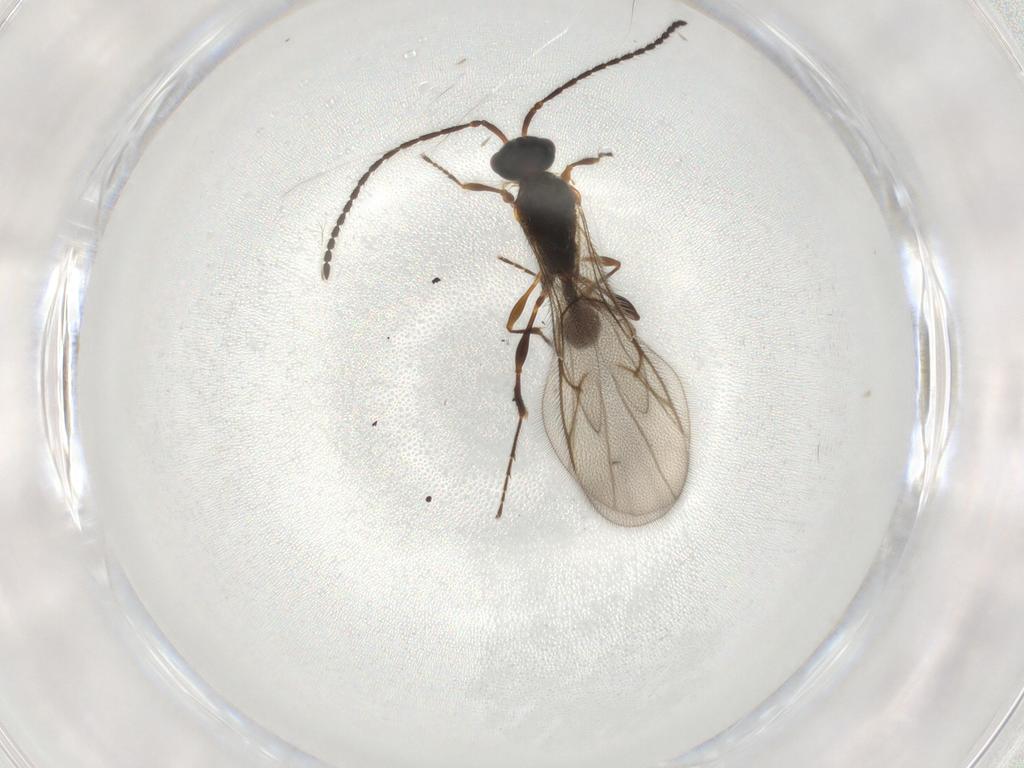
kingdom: Animalia
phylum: Arthropoda
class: Insecta
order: Hymenoptera
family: Diapriidae
